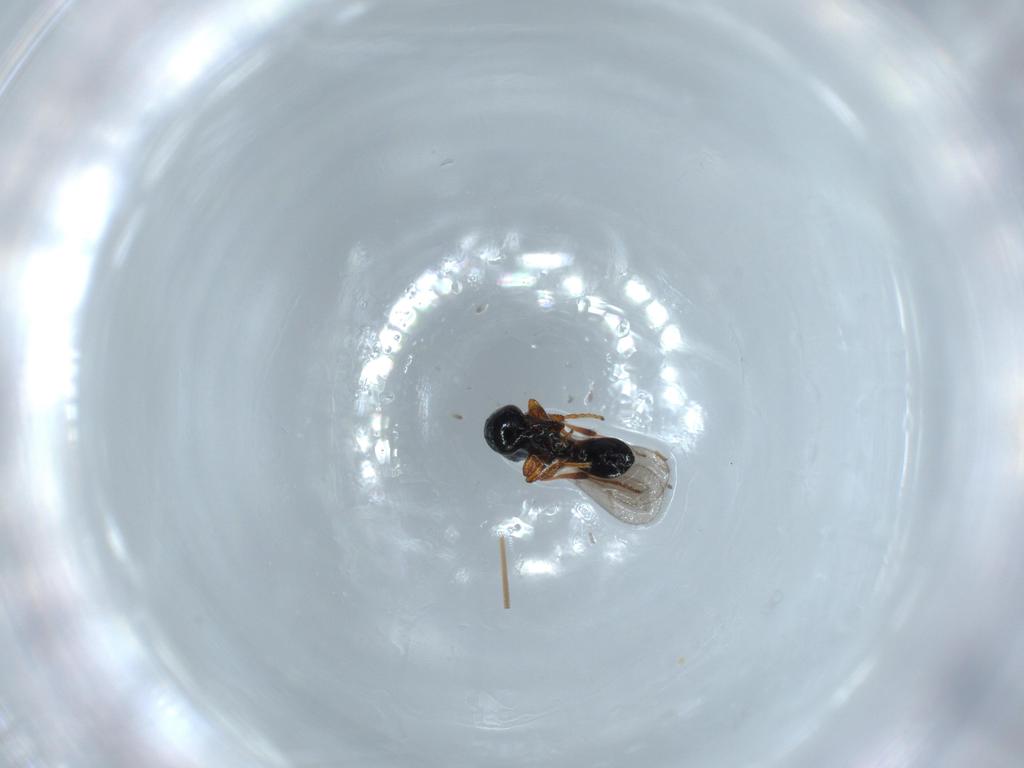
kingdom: Animalia
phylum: Arthropoda
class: Insecta
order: Hymenoptera
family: Platygastridae
